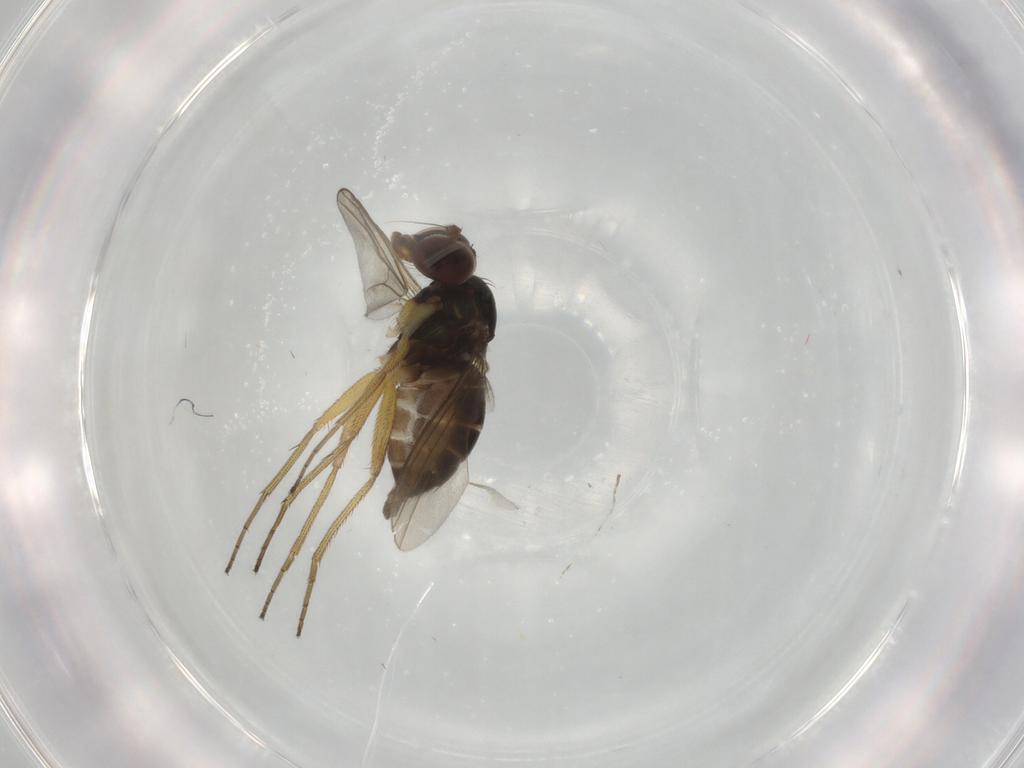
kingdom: Animalia
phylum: Arthropoda
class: Insecta
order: Diptera
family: Dolichopodidae
